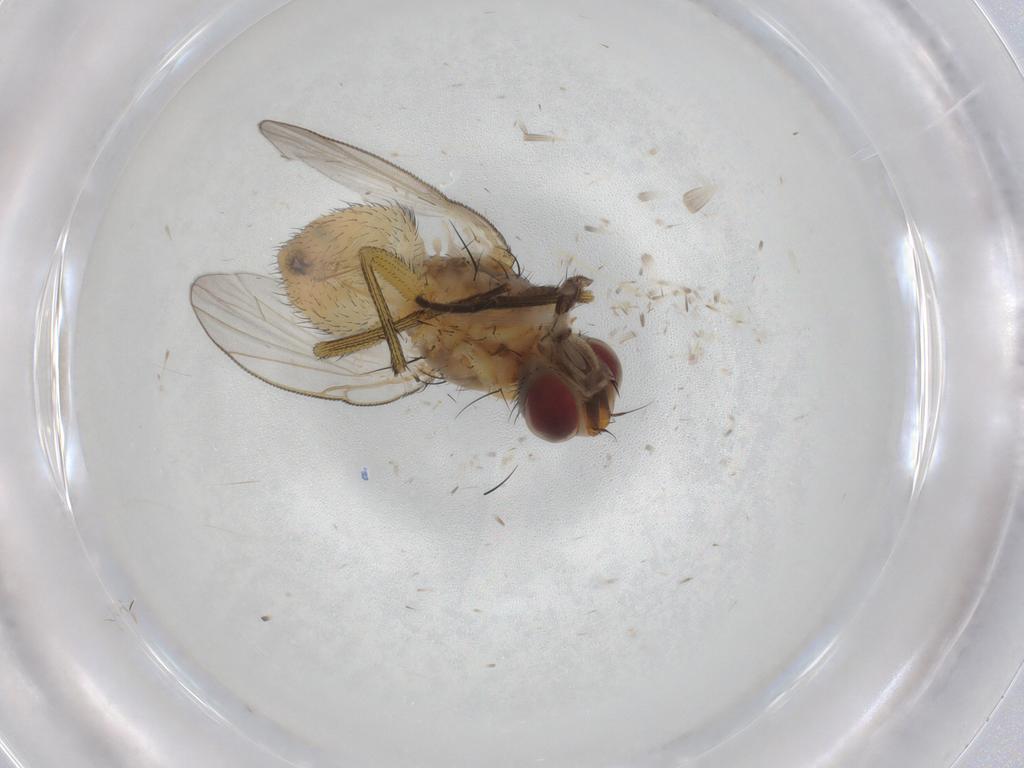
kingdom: Animalia
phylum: Arthropoda
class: Insecta
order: Diptera
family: Muscidae
